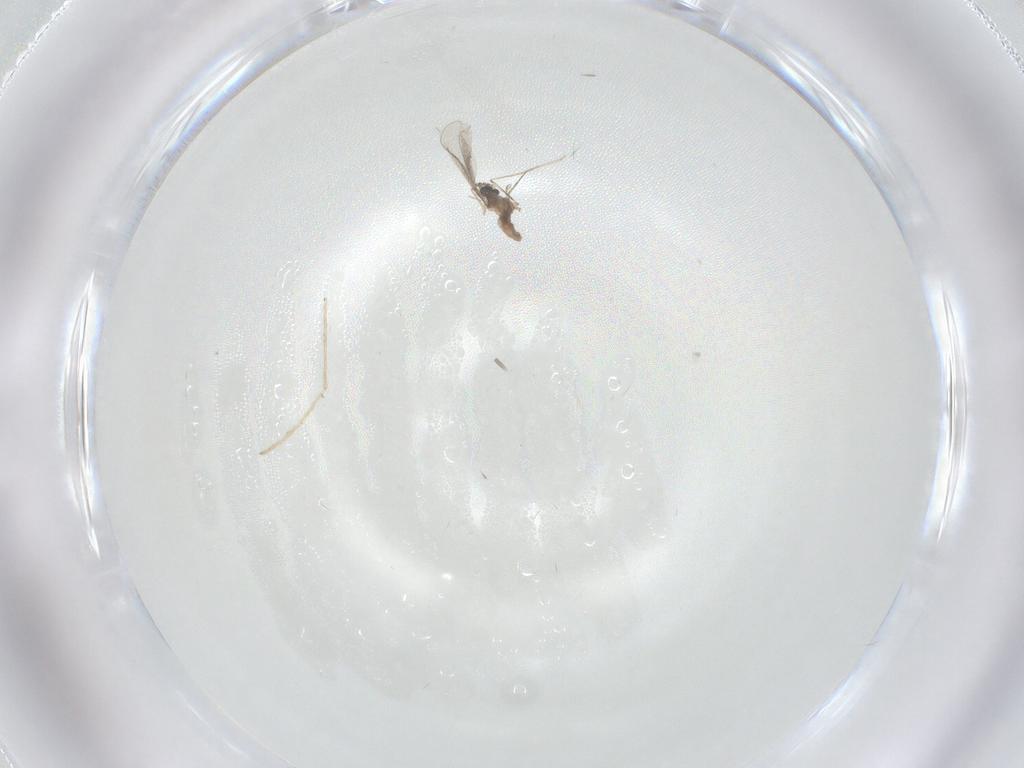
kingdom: Animalia
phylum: Arthropoda
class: Insecta
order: Diptera
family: Cecidomyiidae
